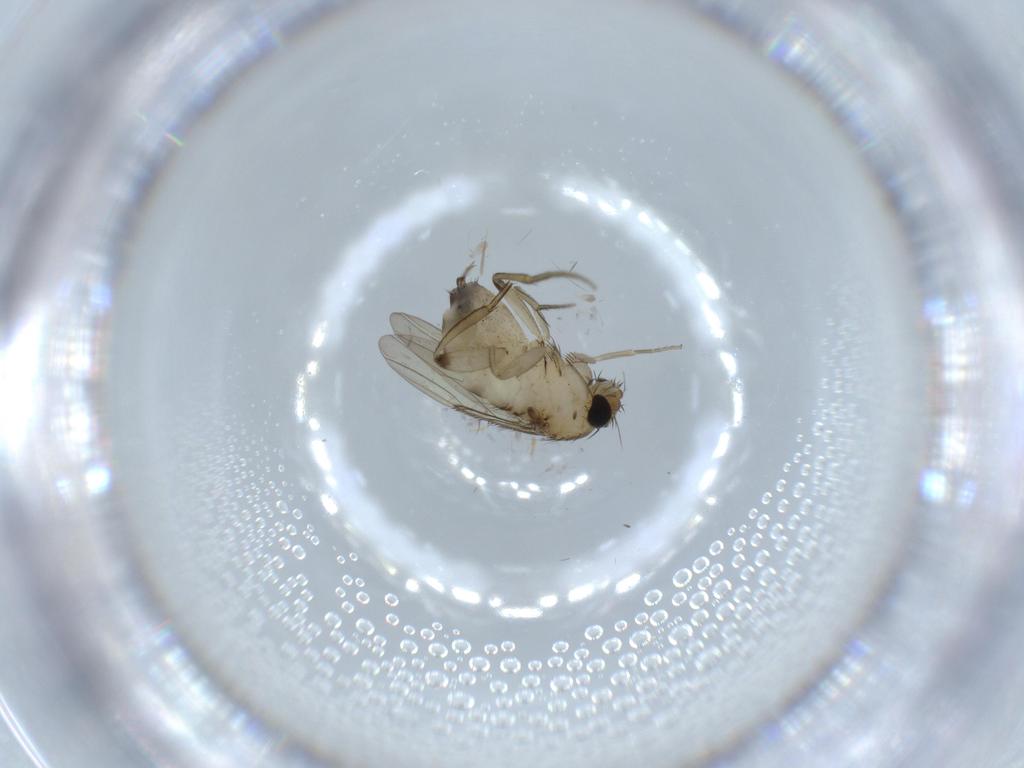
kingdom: Animalia
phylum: Arthropoda
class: Insecta
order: Diptera
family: Phoridae
